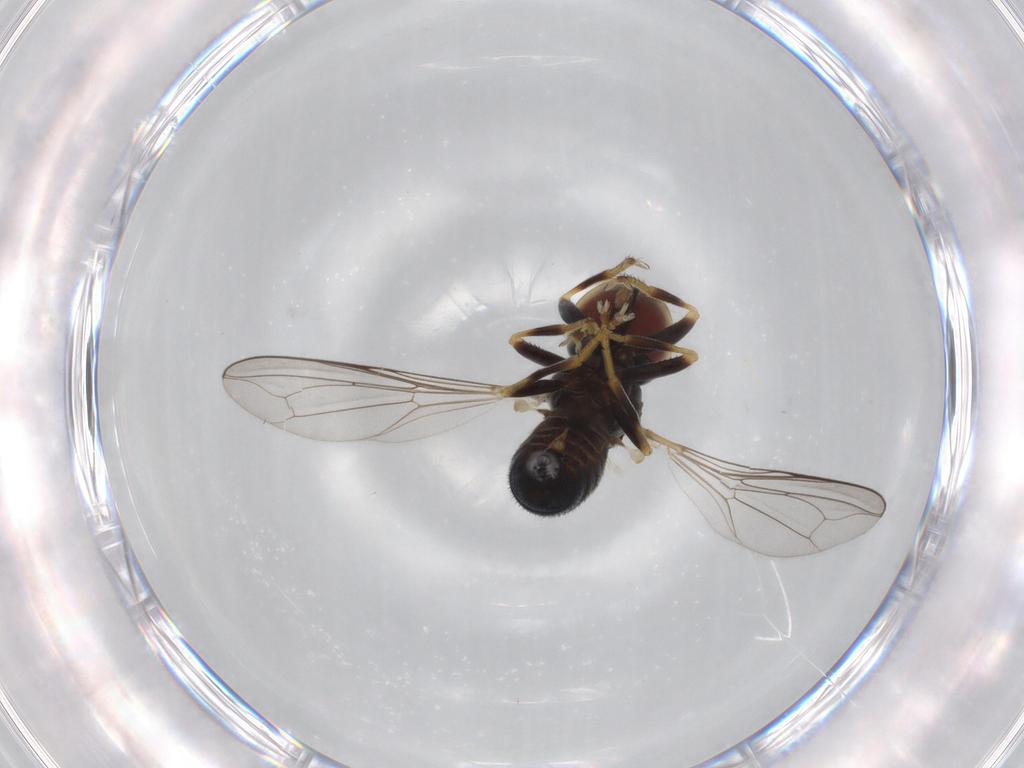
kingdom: Animalia
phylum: Arthropoda
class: Insecta
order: Diptera
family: Pipunculidae
